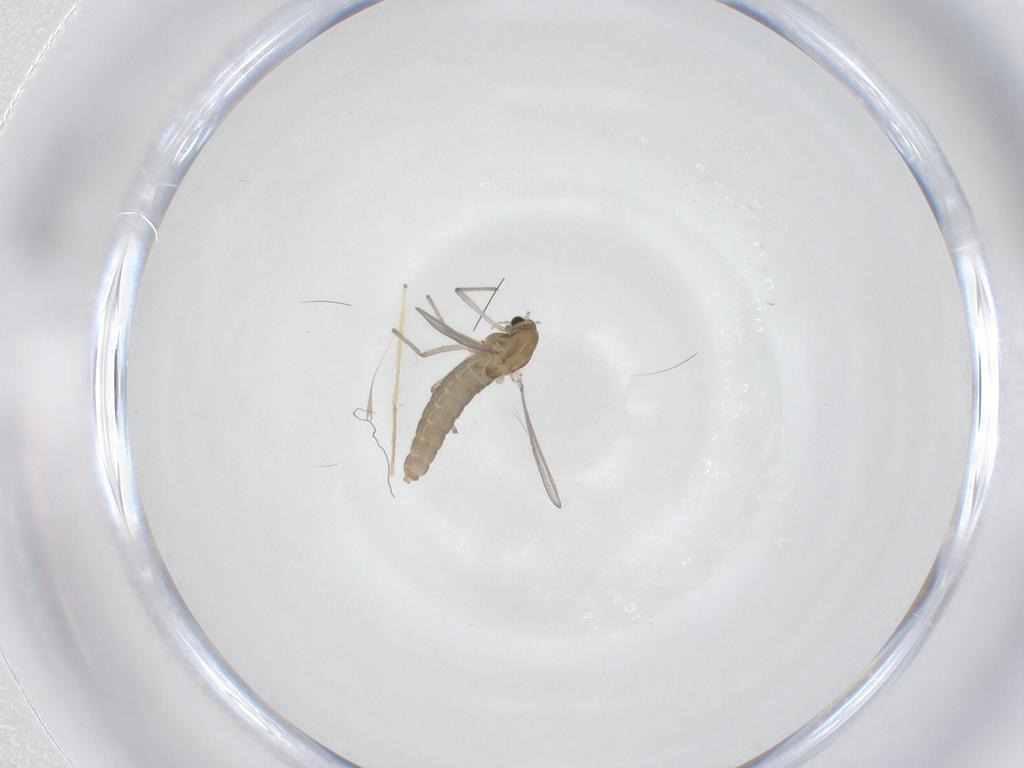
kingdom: Animalia
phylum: Arthropoda
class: Insecta
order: Diptera
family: Chironomidae
